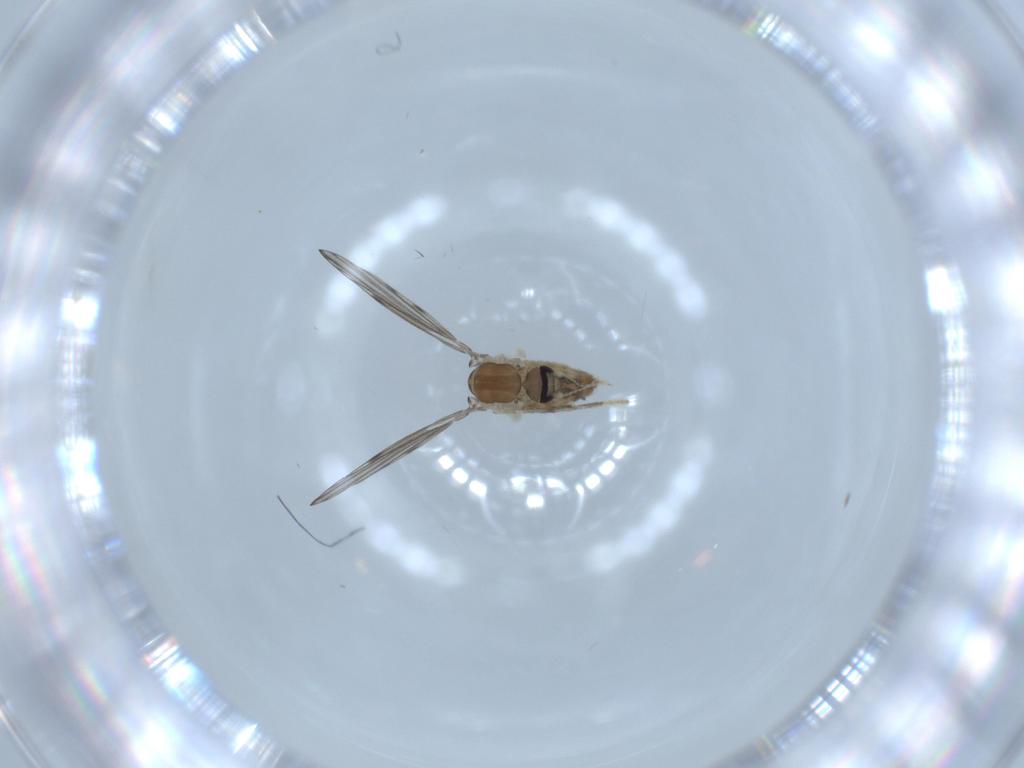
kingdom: Animalia
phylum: Arthropoda
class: Insecta
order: Diptera
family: Psychodidae
